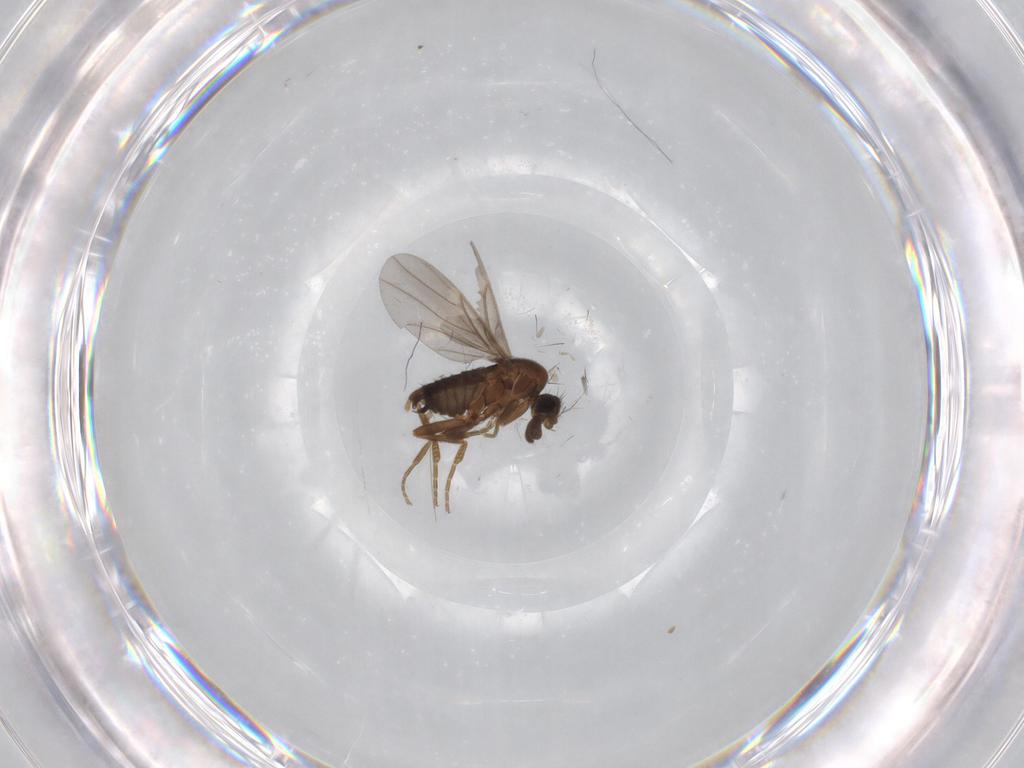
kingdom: Animalia
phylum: Arthropoda
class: Insecta
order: Diptera
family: Phoridae
